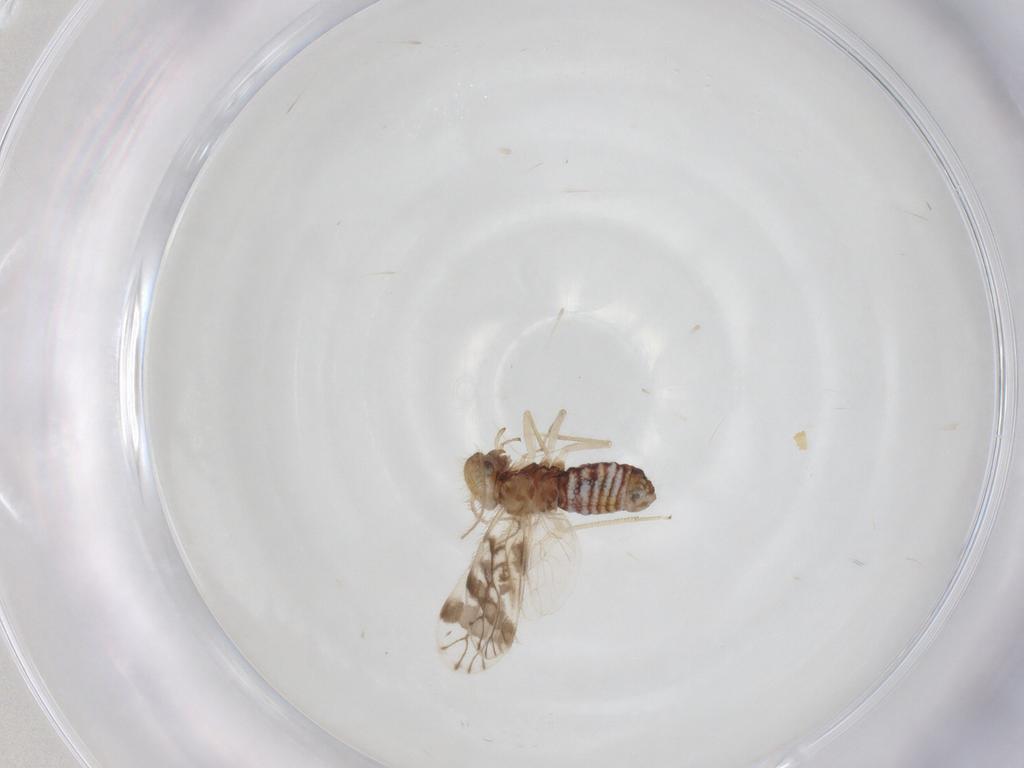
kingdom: Animalia
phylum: Arthropoda
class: Insecta
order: Psocodea
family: Pseudocaeciliidae
